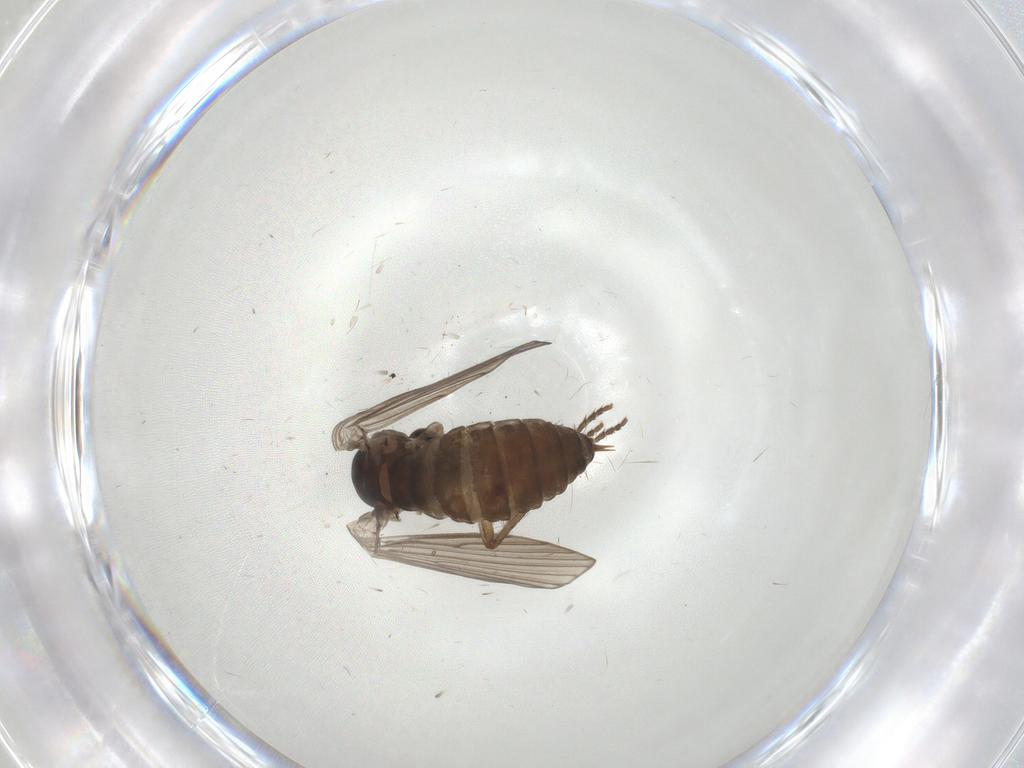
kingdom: Animalia
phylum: Arthropoda
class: Insecta
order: Diptera
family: Psychodidae
